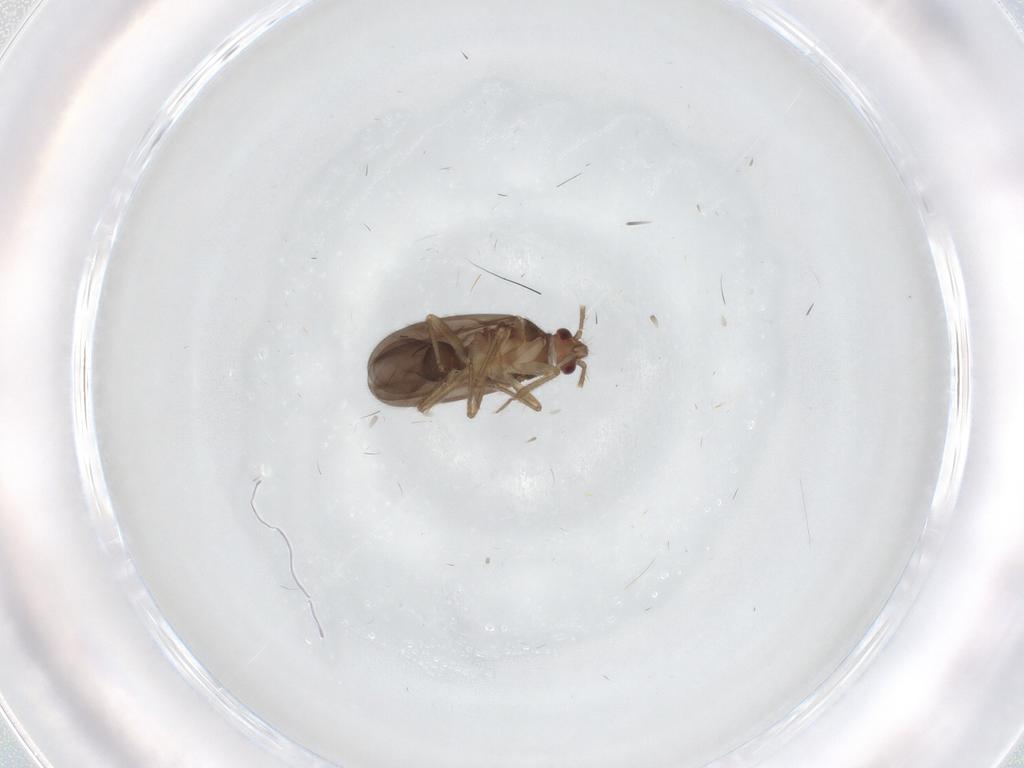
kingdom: Animalia
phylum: Arthropoda
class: Insecta
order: Hemiptera
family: Ceratocombidae
